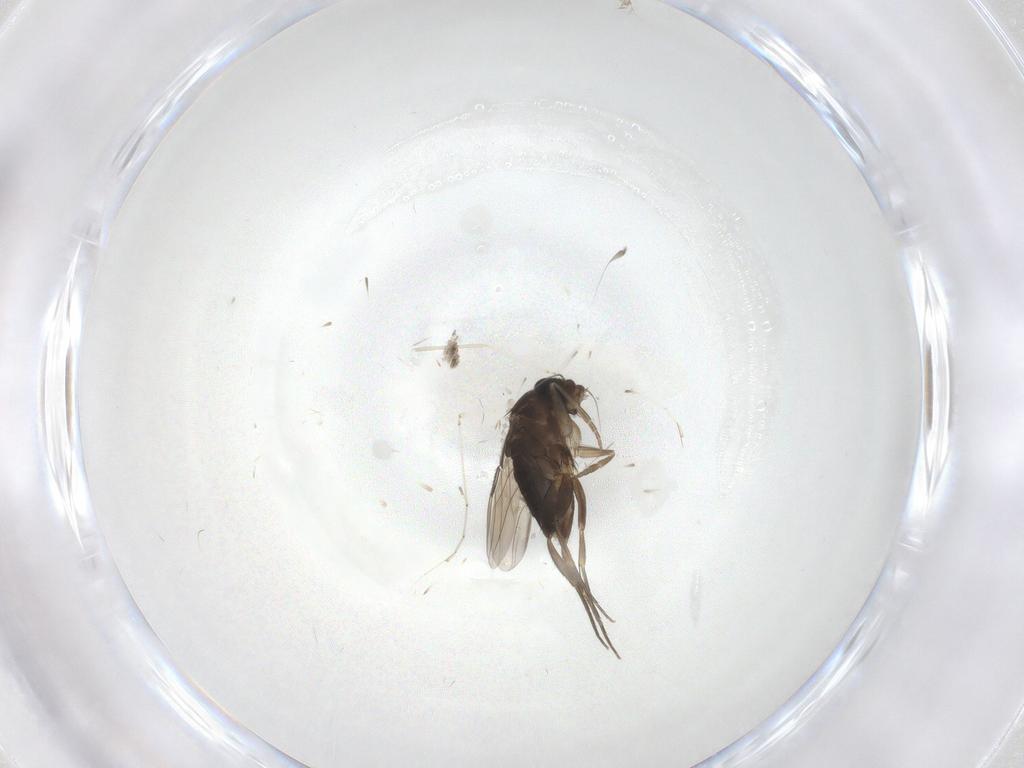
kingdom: Animalia
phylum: Arthropoda
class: Insecta
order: Diptera
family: Phoridae
